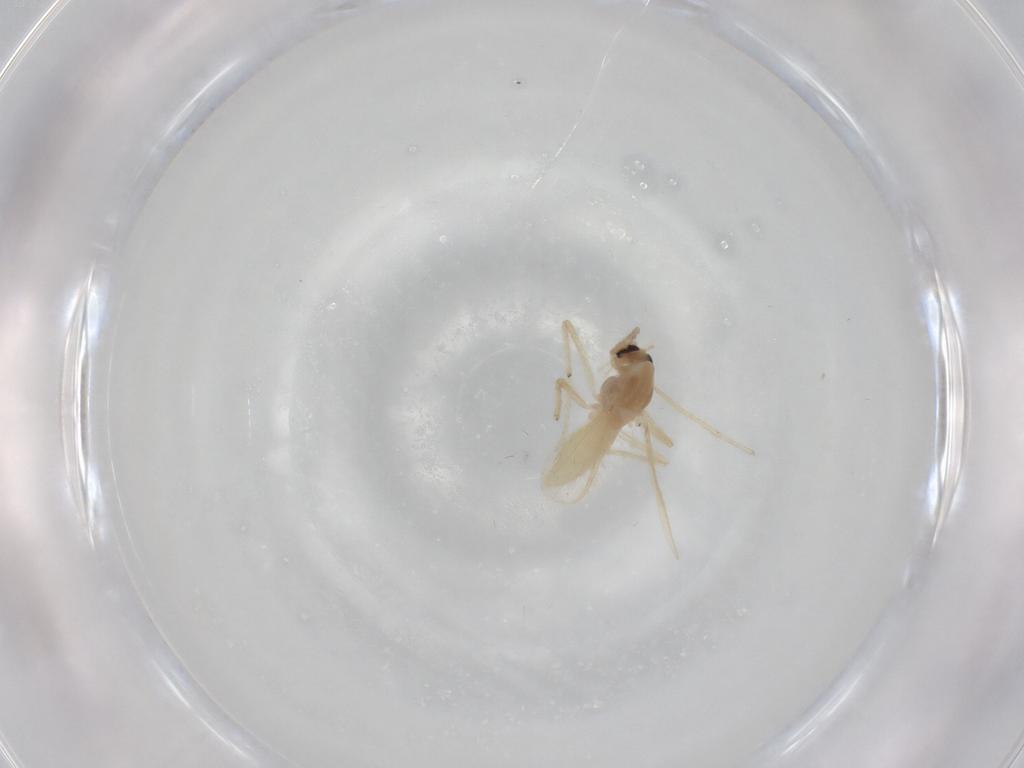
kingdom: Animalia
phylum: Arthropoda
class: Insecta
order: Diptera
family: Chironomidae
